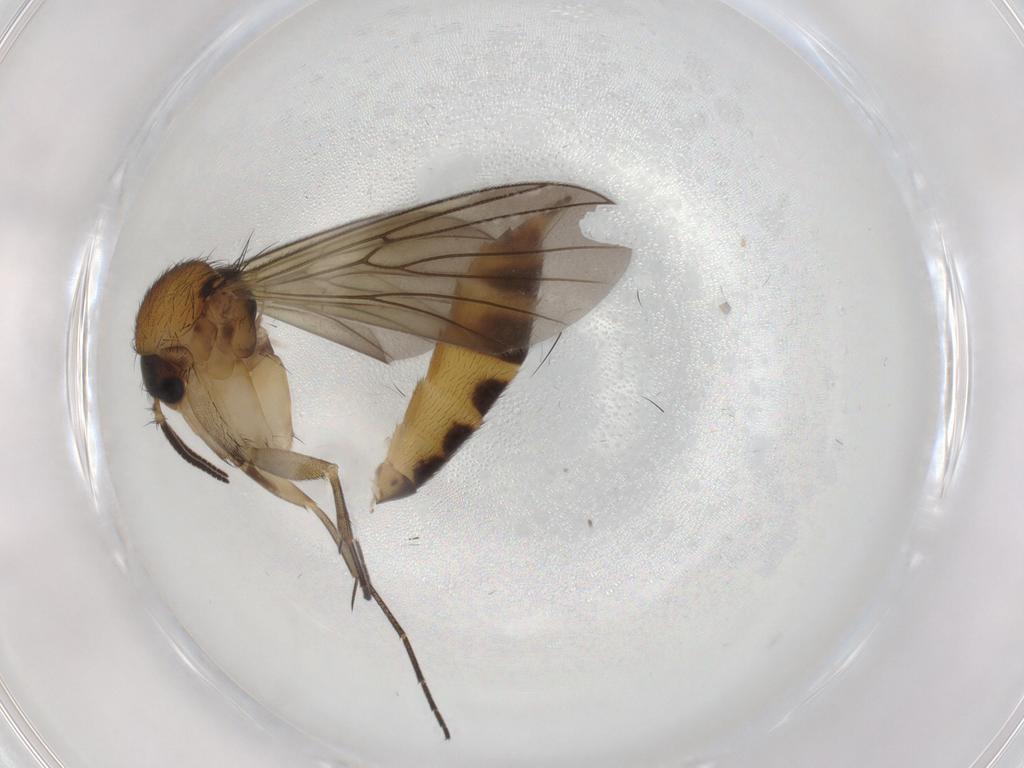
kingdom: Animalia
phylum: Arthropoda
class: Insecta
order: Diptera
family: Mycetophilidae
